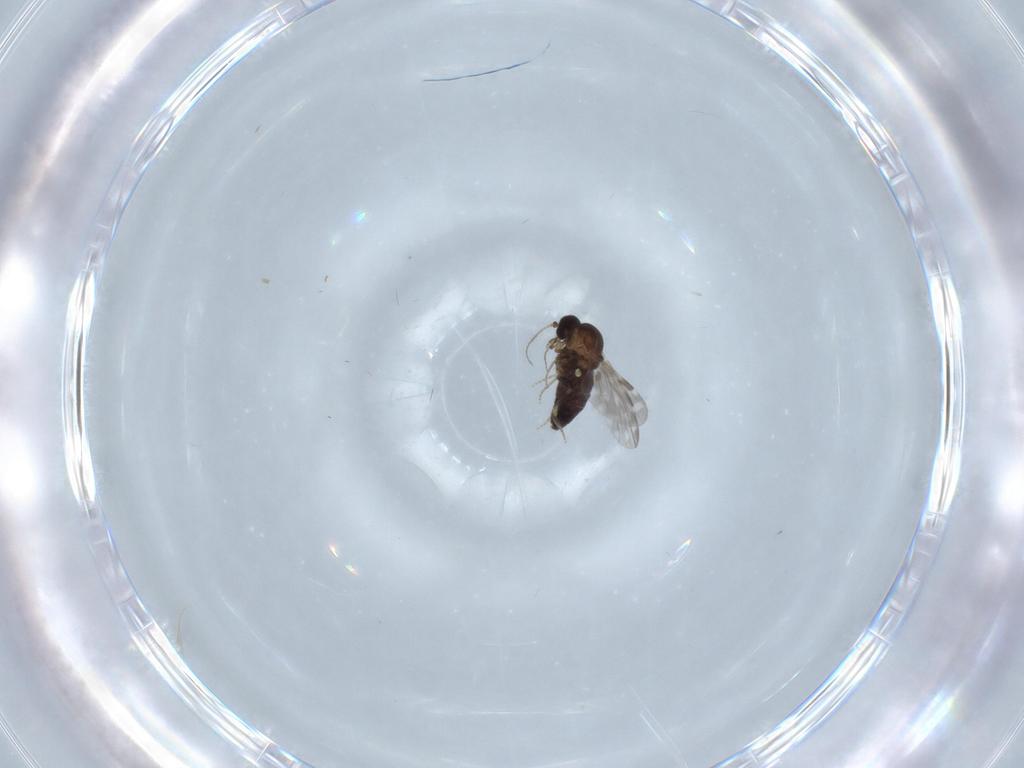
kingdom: Animalia
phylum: Arthropoda
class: Insecta
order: Diptera
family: Ceratopogonidae
